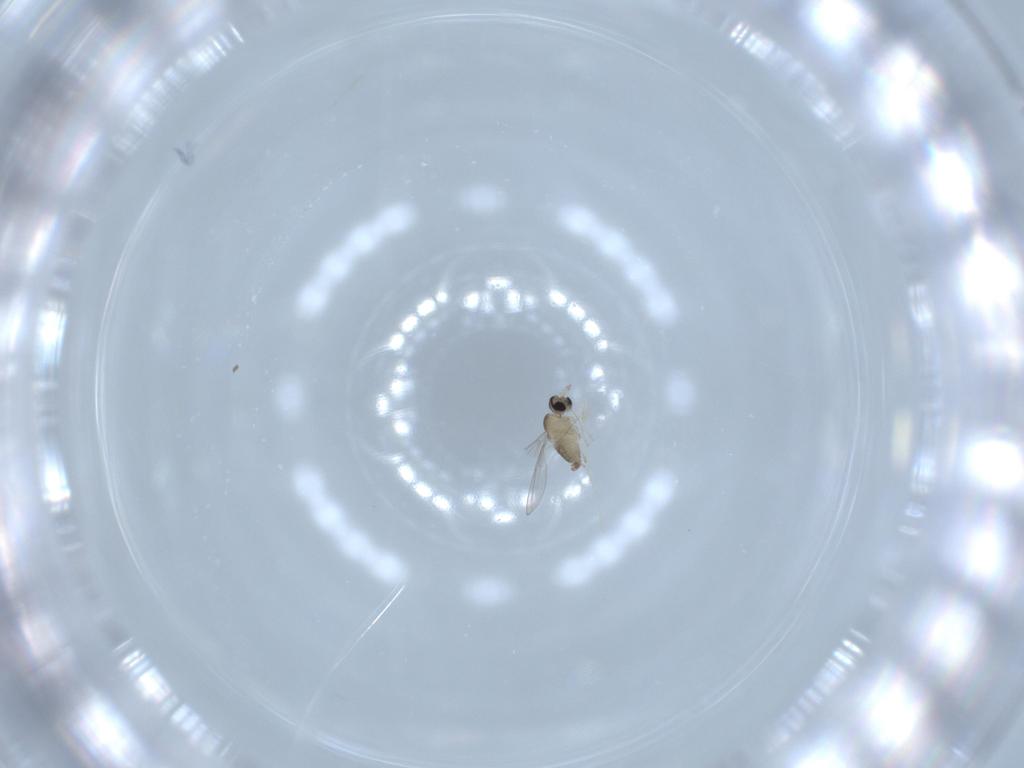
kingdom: Animalia
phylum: Arthropoda
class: Insecta
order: Diptera
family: Cecidomyiidae
